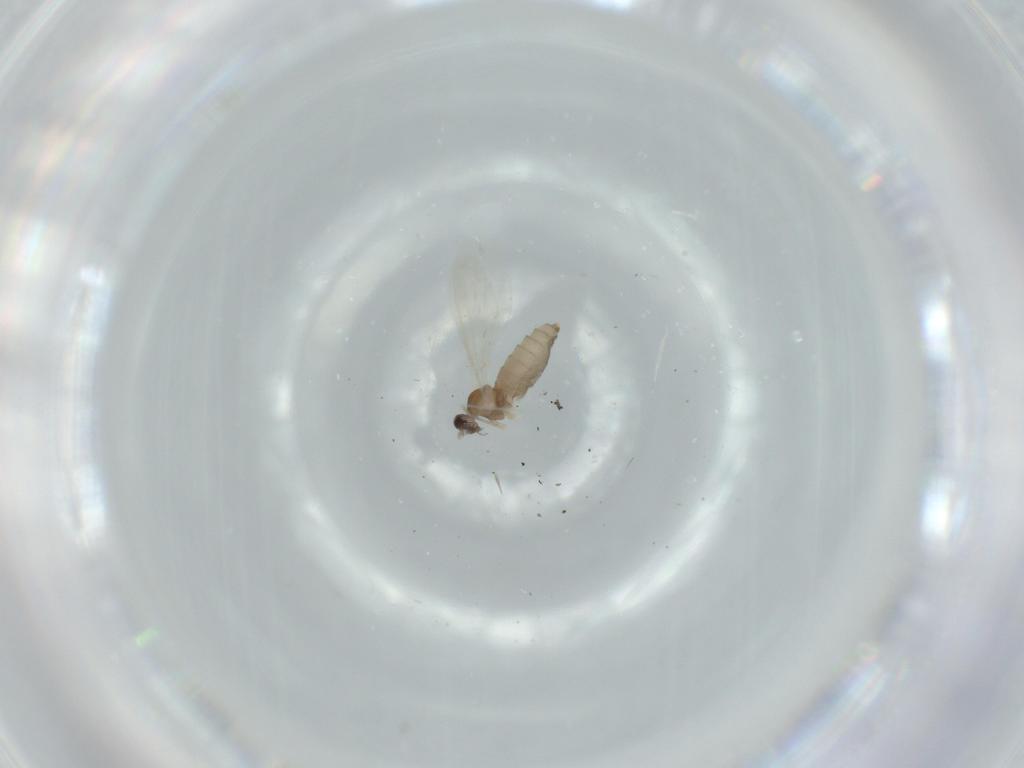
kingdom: Animalia
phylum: Arthropoda
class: Insecta
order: Diptera
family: Cecidomyiidae
